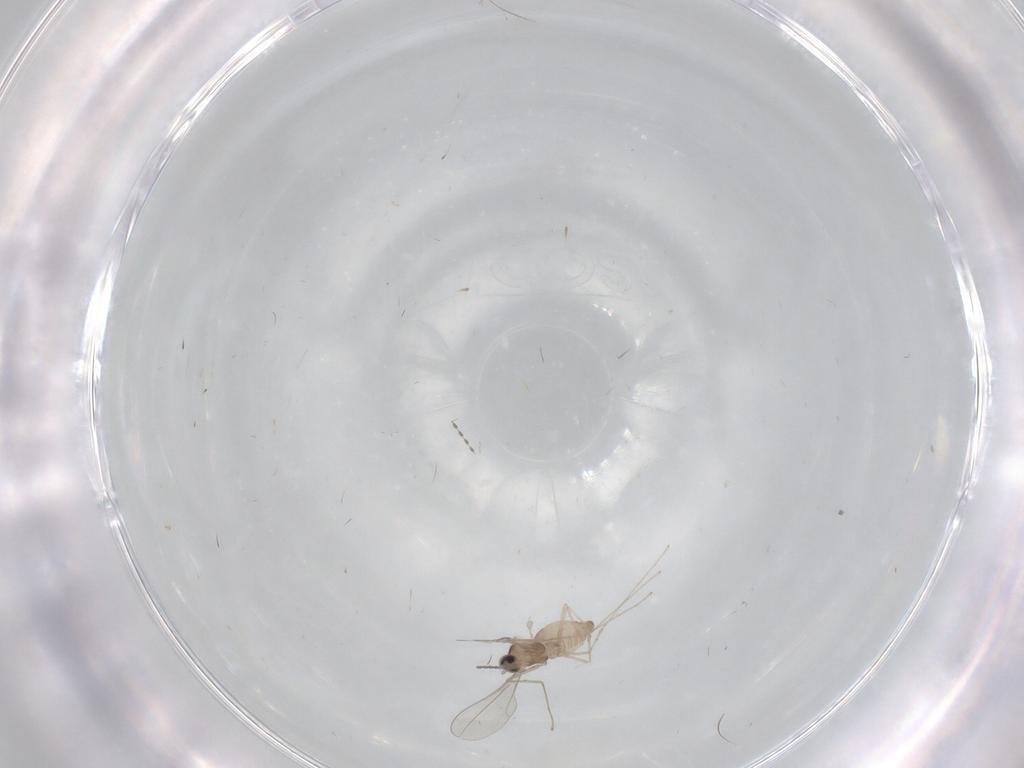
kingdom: Animalia
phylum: Arthropoda
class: Insecta
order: Diptera
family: Cecidomyiidae
